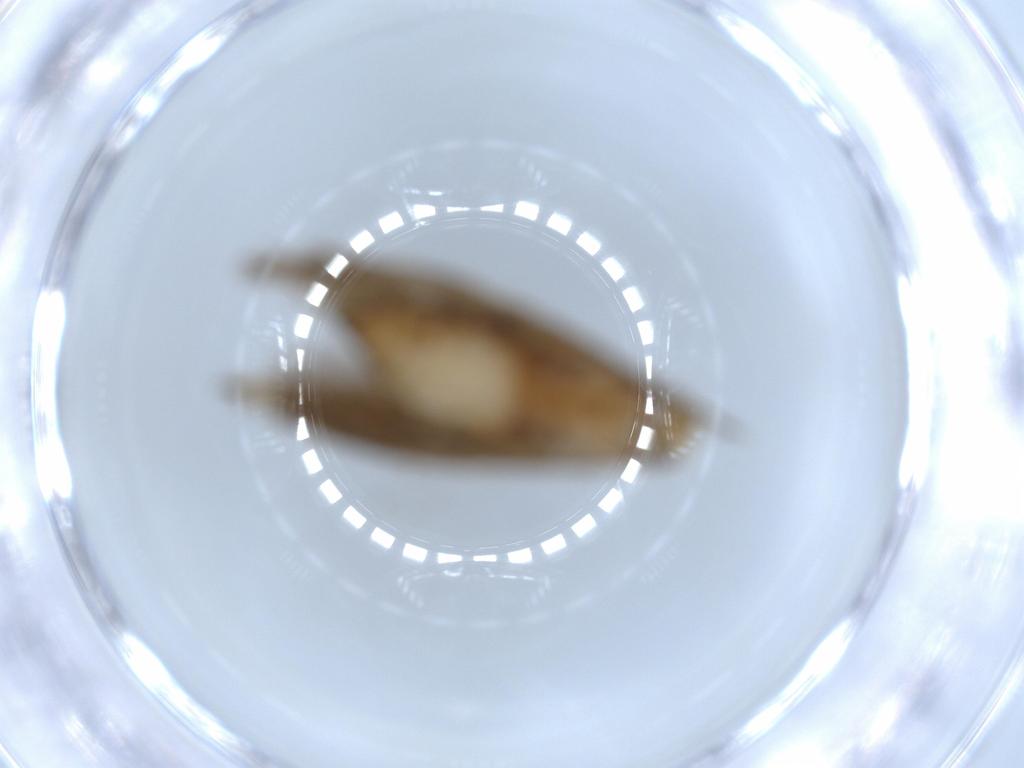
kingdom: Animalia
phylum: Arthropoda
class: Insecta
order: Lepidoptera
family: Tineidae
